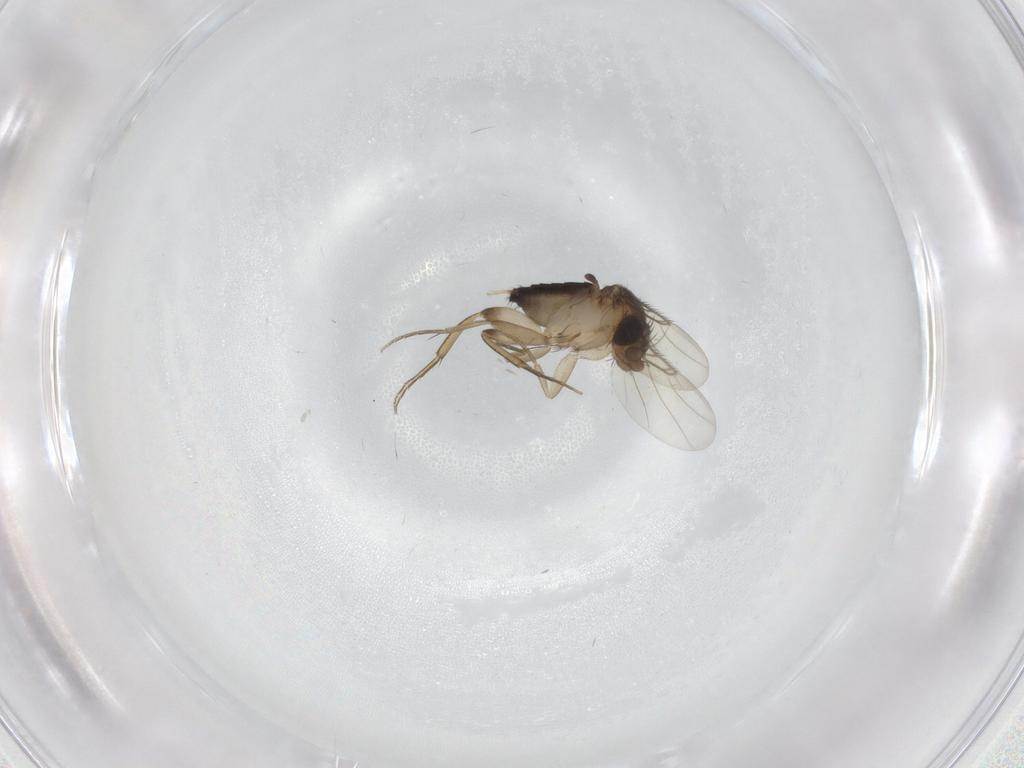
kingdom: Animalia
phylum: Arthropoda
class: Insecta
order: Diptera
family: Phoridae
